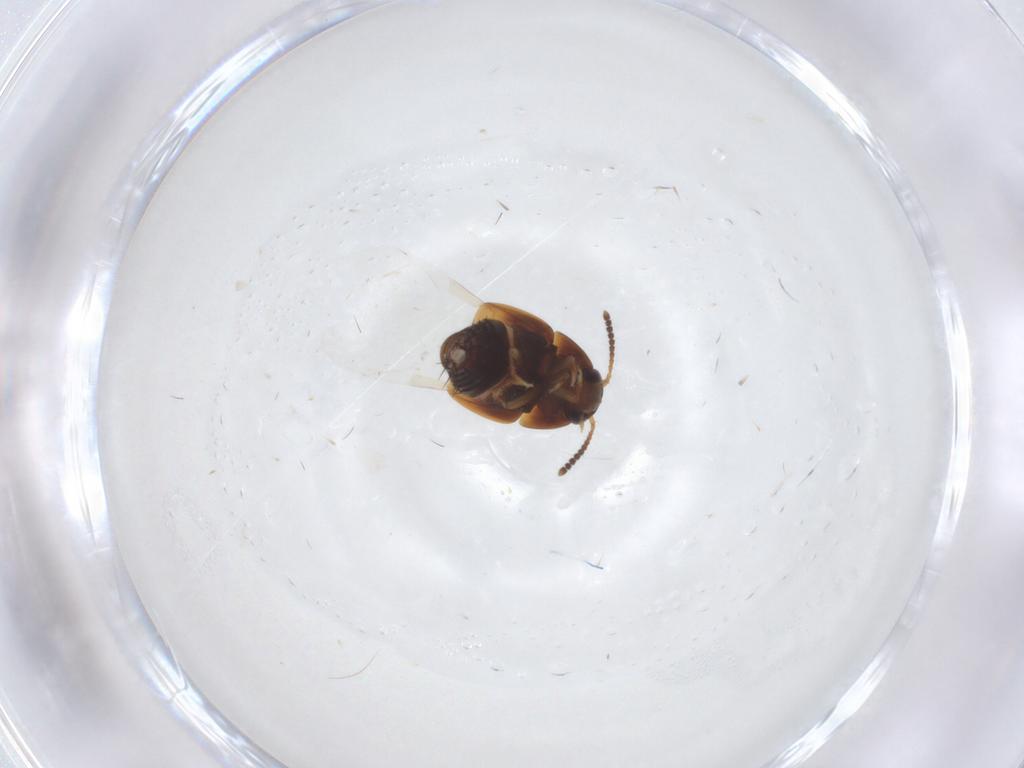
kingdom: Animalia
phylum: Arthropoda
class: Insecta
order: Coleoptera
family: Staphylinidae
